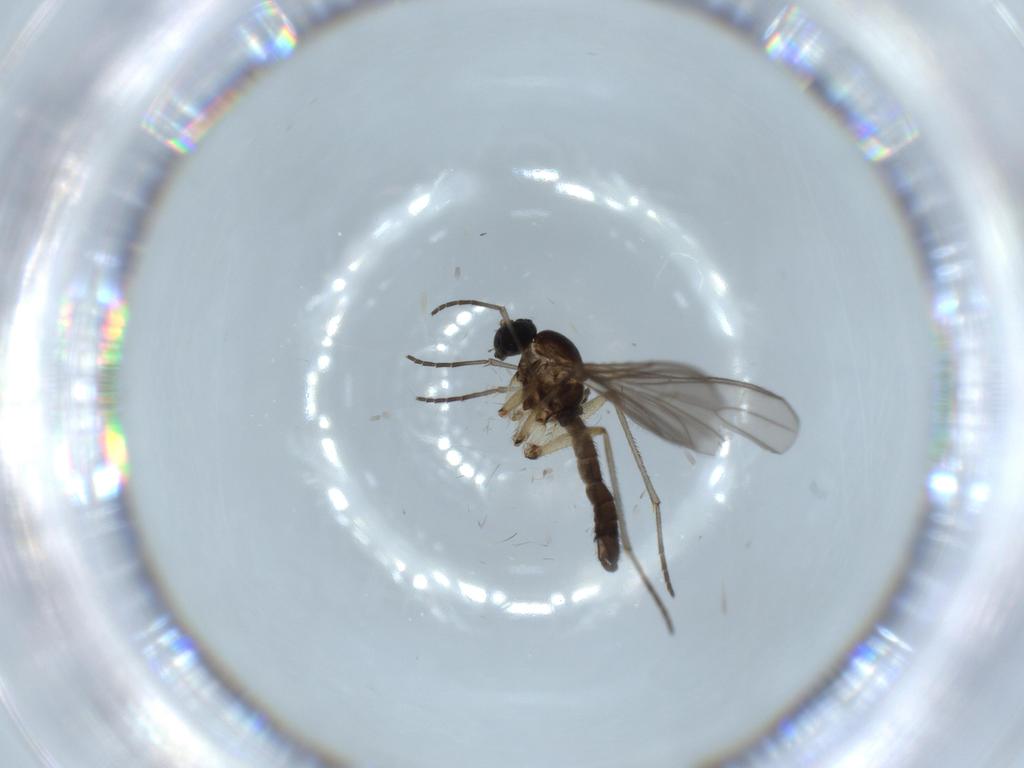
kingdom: Animalia
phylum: Arthropoda
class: Insecta
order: Diptera
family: Sciaridae
